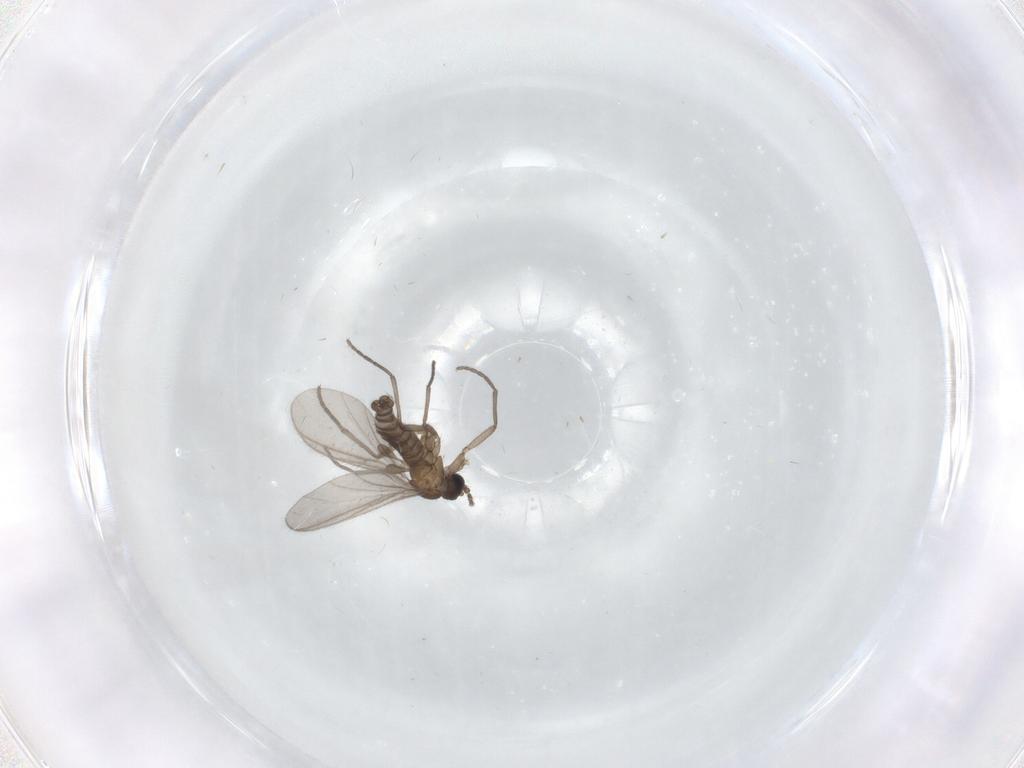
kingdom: Animalia
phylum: Arthropoda
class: Insecta
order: Diptera
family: Sciaridae
